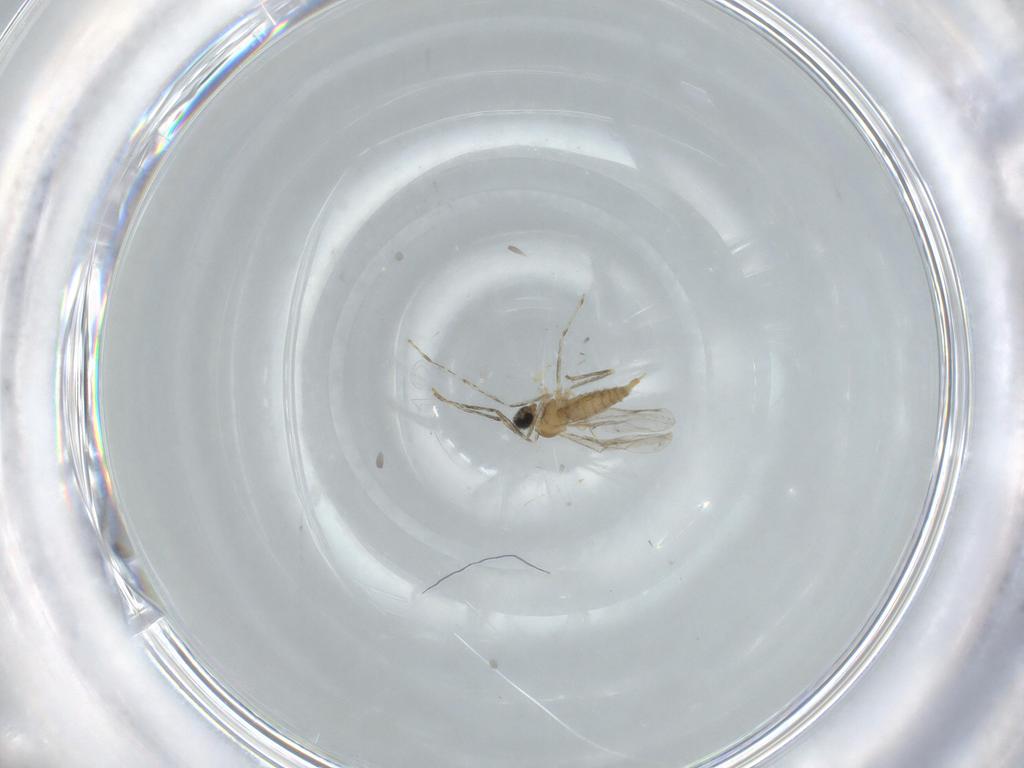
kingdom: Animalia
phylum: Arthropoda
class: Insecta
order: Diptera
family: Cecidomyiidae
